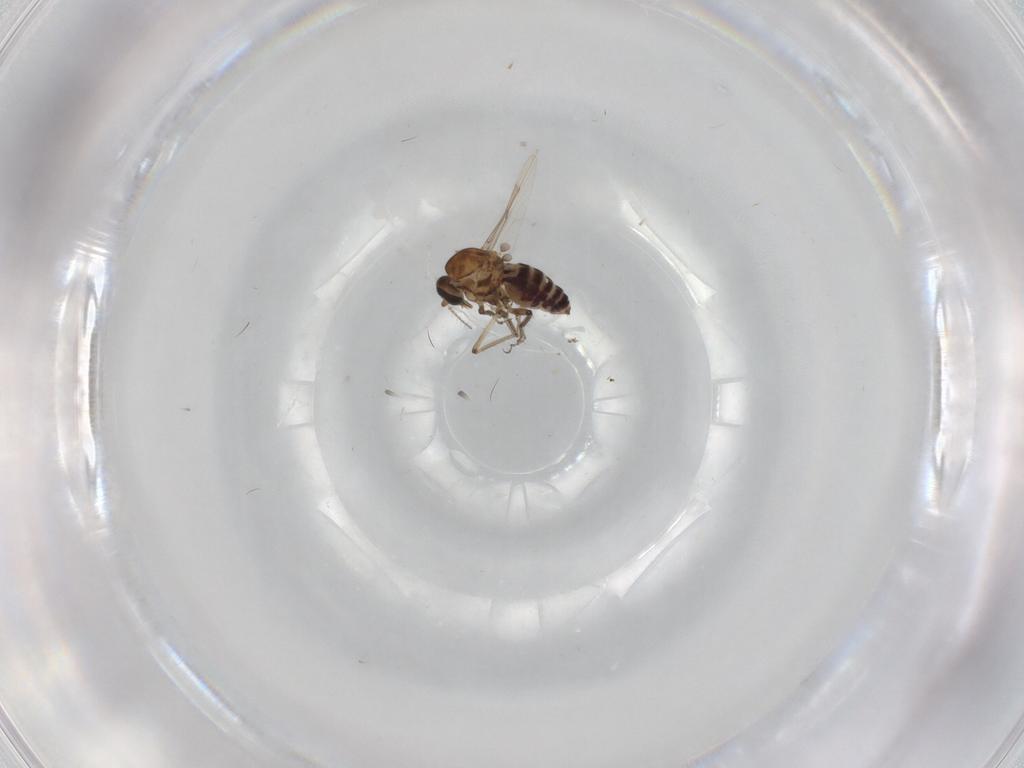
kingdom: Animalia
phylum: Arthropoda
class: Insecta
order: Diptera
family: Ceratopogonidae
